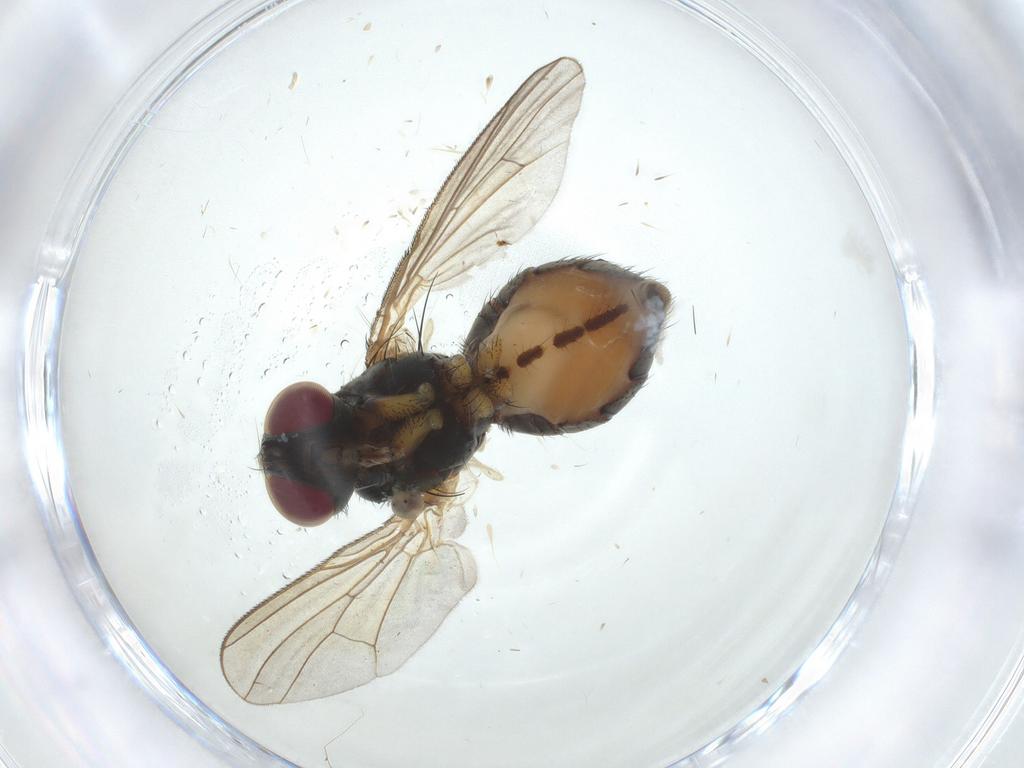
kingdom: Animalia
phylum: Arthropoda
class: Insecta
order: Diptera
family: Muscidae
